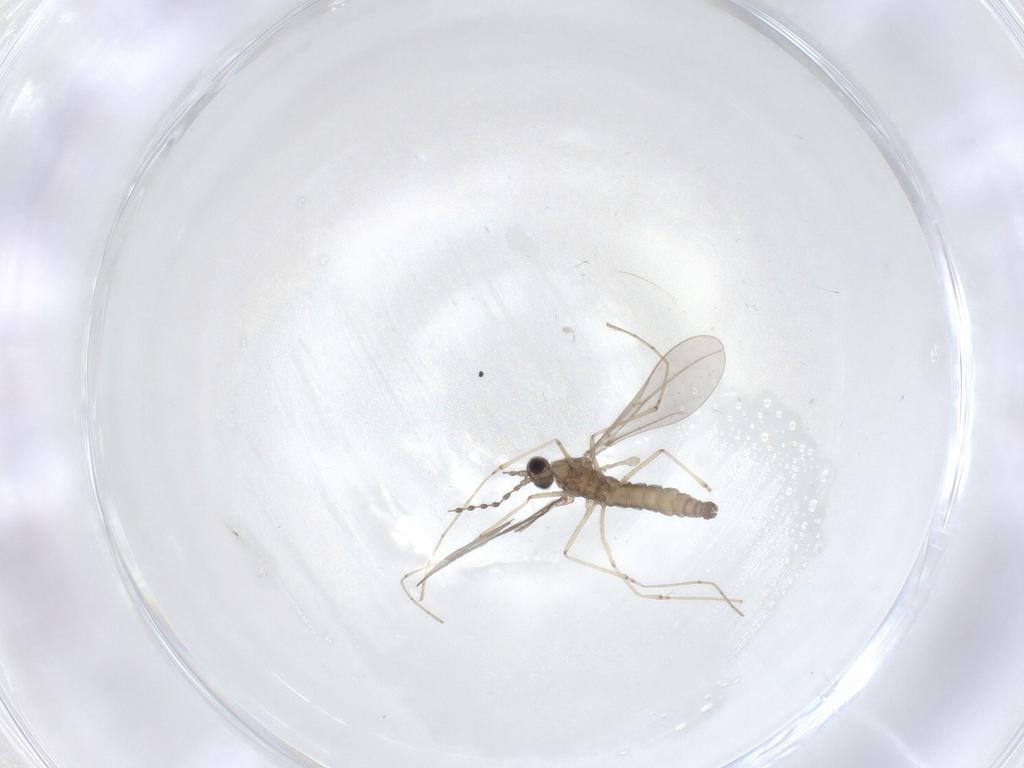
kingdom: Animalia
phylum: Arthropoda
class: Insecta
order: Diptera
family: Cecidomyiidae
